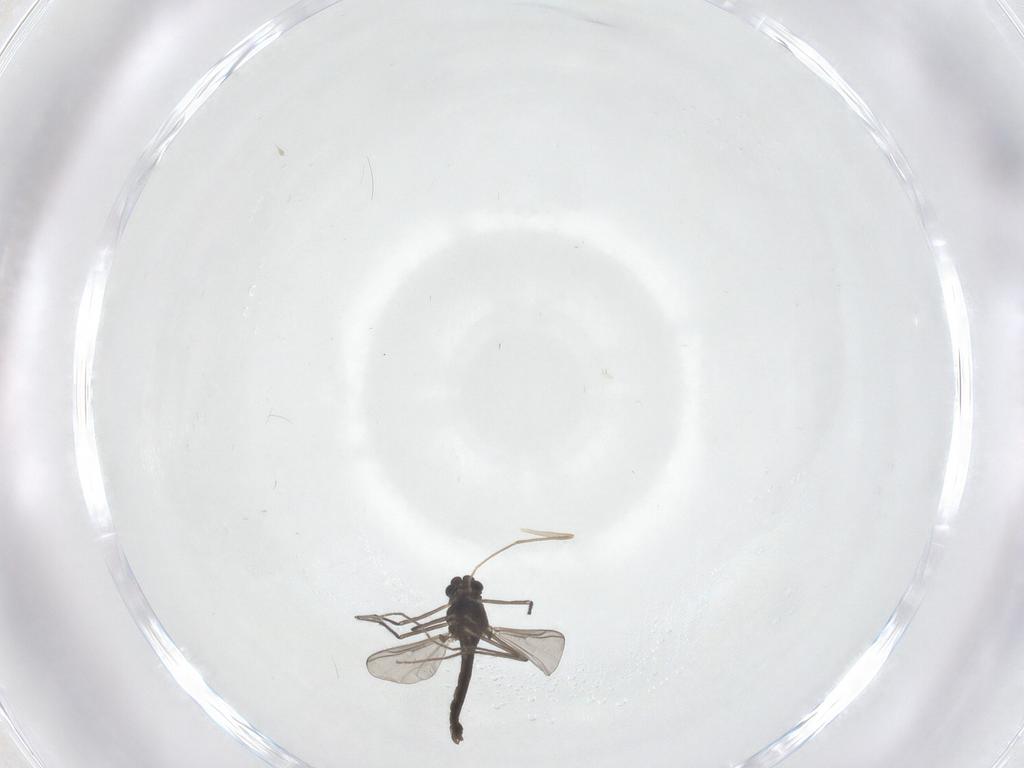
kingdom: Animalia
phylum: Arthropoda
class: Insecta
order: Diptera
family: Chironomidae
